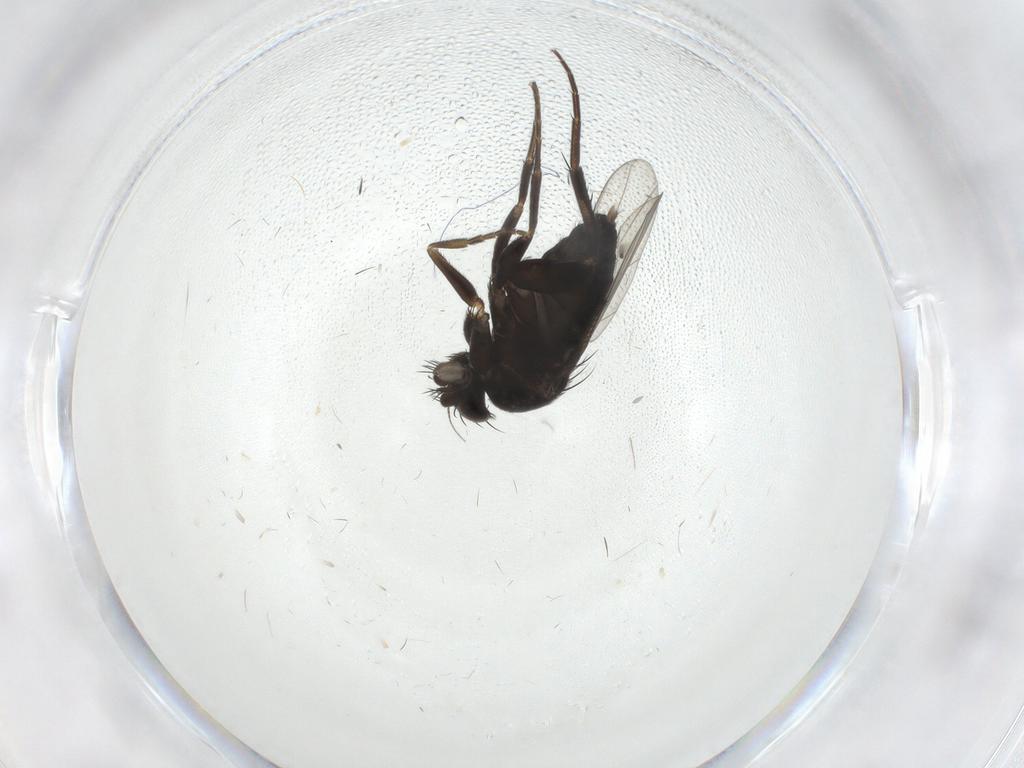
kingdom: Animalia
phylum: Arthropoda
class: Insecta
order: Diptera
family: Phoridae
